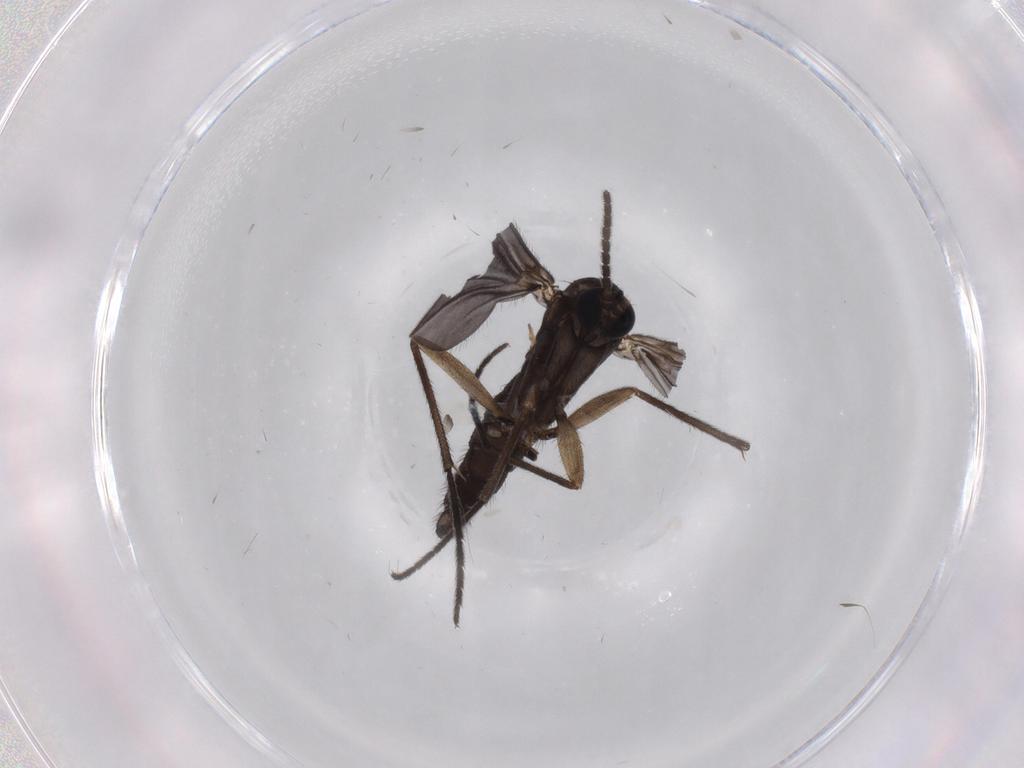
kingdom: Animalia
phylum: Arthropoda
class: Insecta
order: Diptera
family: Sciaridae
